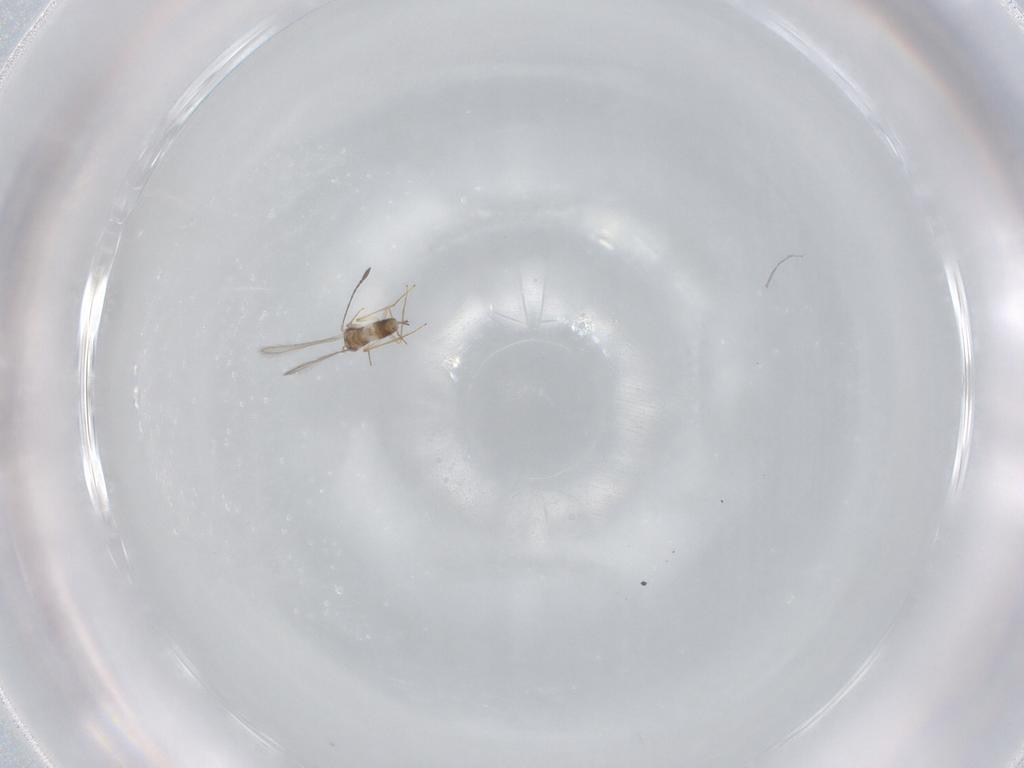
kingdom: Animalia
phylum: Arthropoda
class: Insecta
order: Hymenoptera
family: Mymaridae
